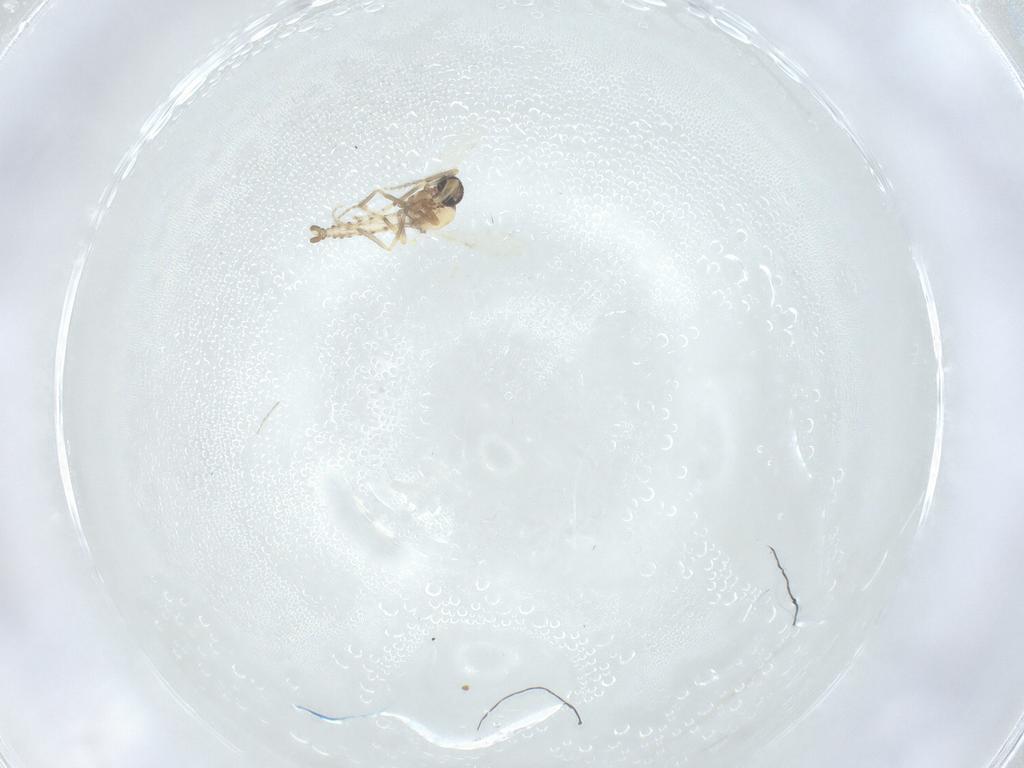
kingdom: Animalia
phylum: Arthropoda
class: Insecta
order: Diptera
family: Ceratopogonidae
